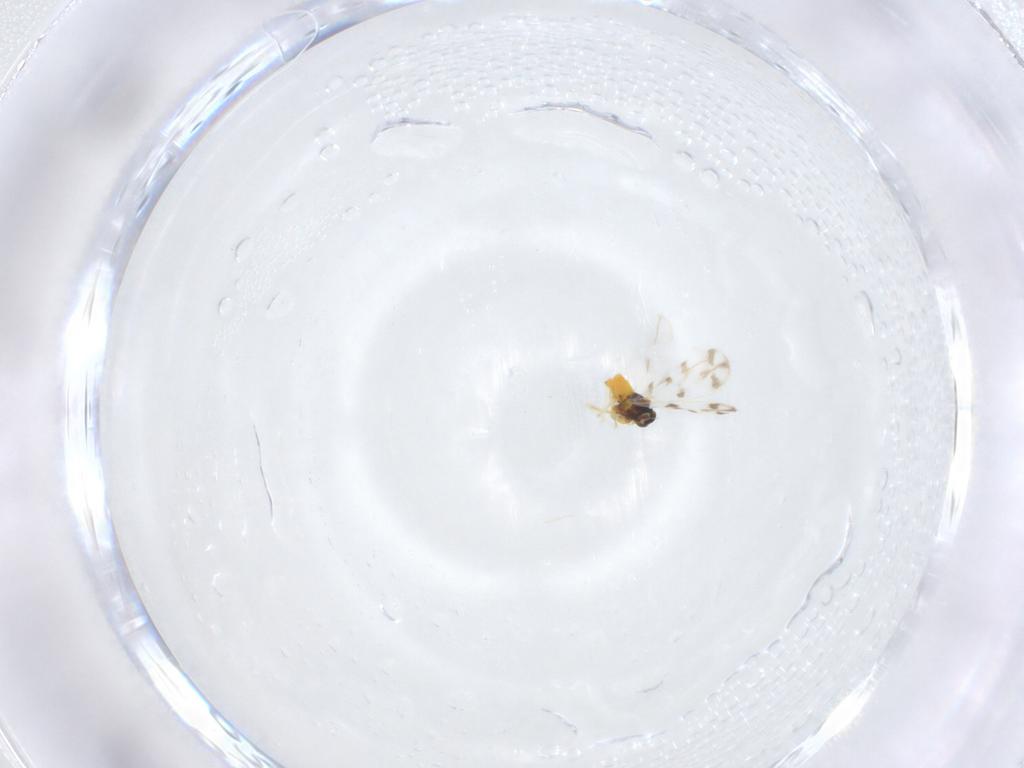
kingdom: Animalia
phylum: Arthropoda
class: Insecta
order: Hemiptera
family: Aleyrodidae
